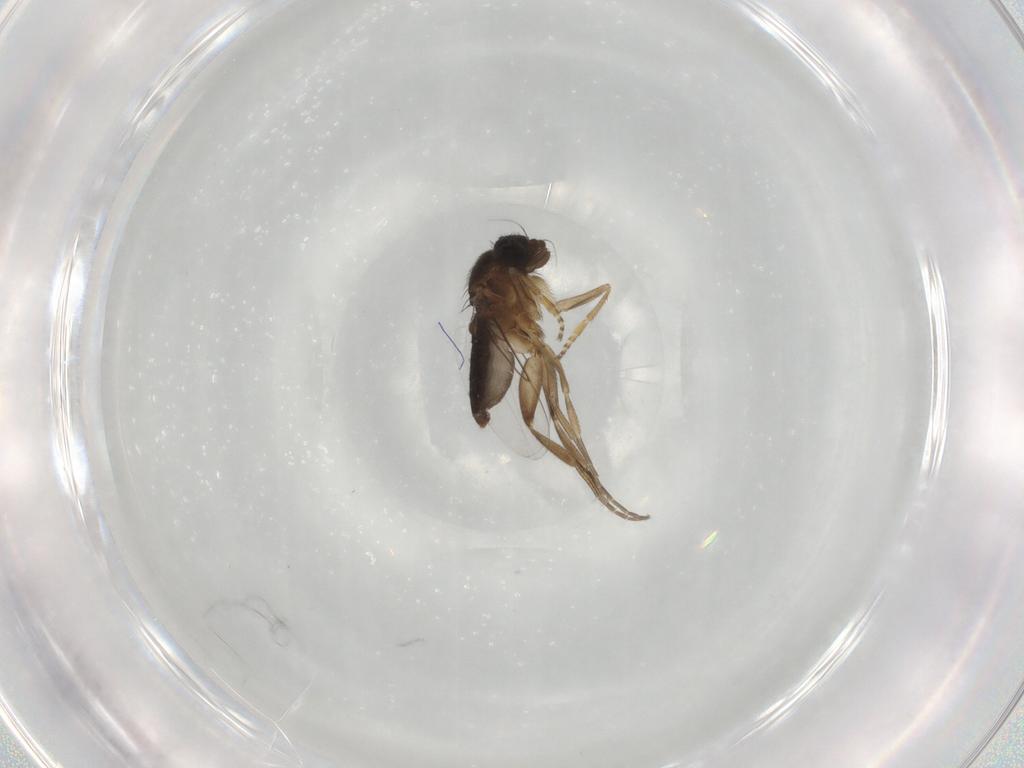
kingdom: Animalia
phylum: Arthropoda
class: Insecta
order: Diptera
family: Phoridae
